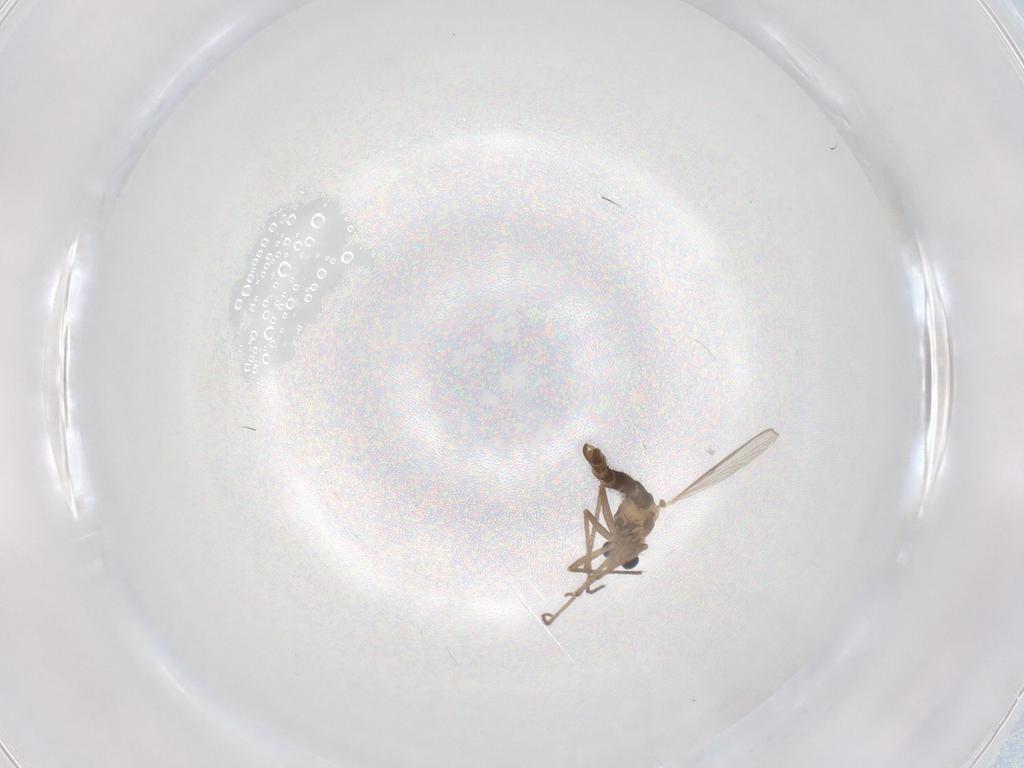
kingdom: Animalia
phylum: Arthropoda
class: Insecta
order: Diptera
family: Chironomidae
